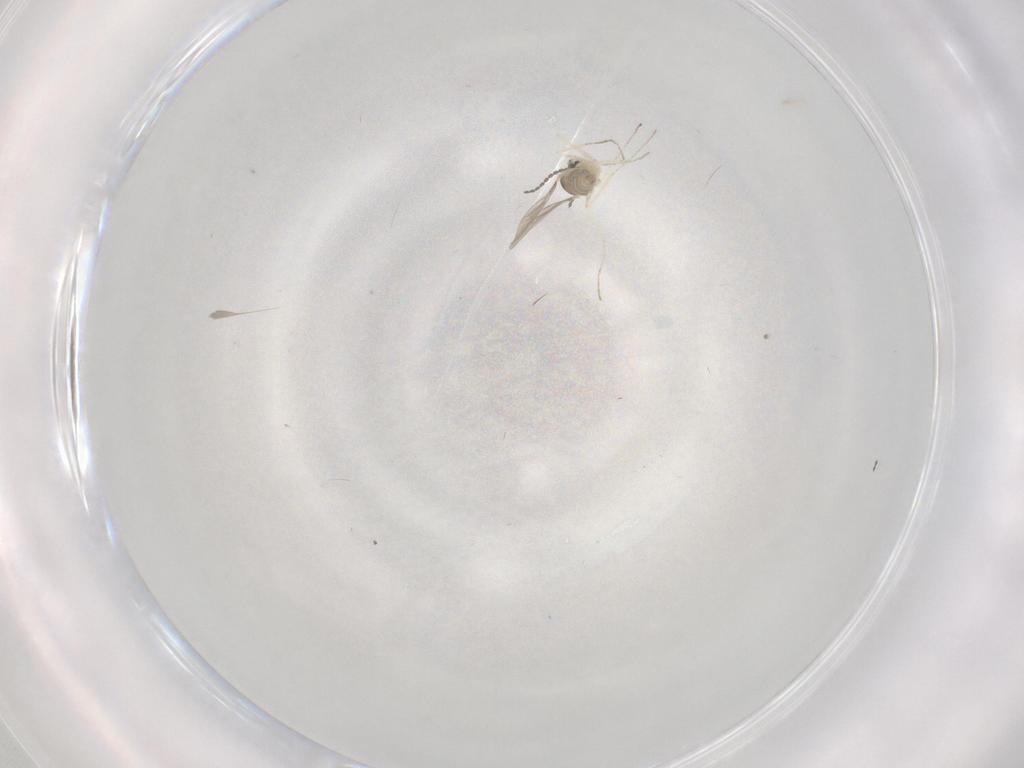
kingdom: Animalia
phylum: Arthropoda
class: Insecta
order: Diptera
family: Cecidomyiidae
